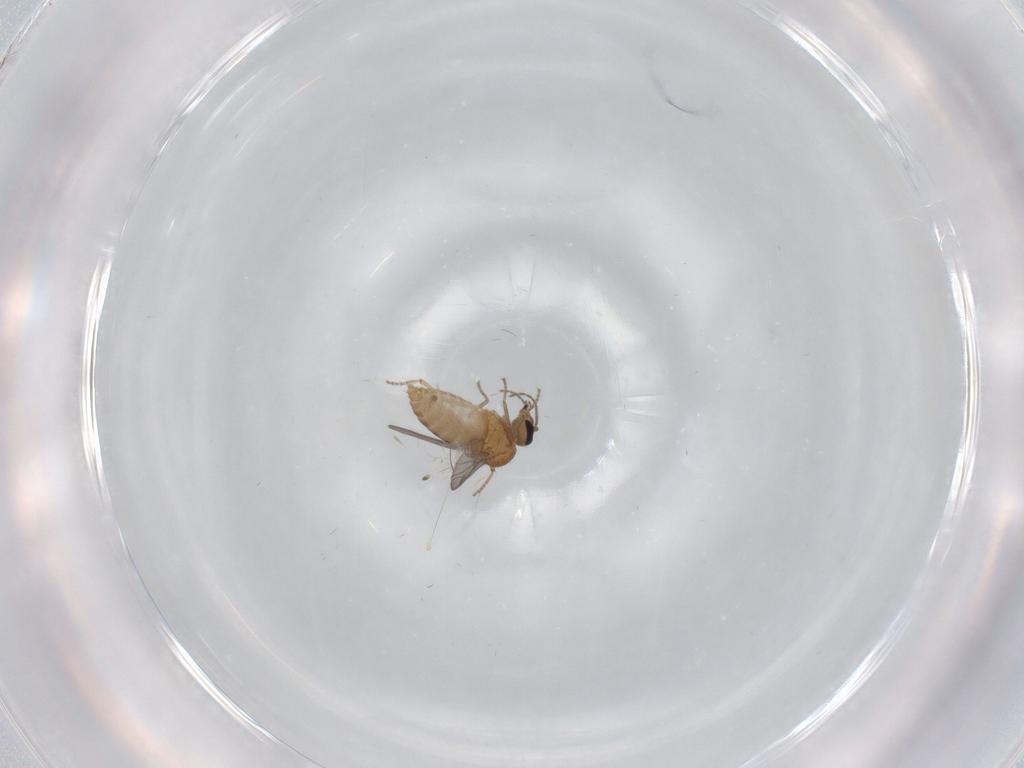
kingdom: Animalia
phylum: Arthropoda
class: Insecta
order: Diptera
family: Ceratopogonidae
